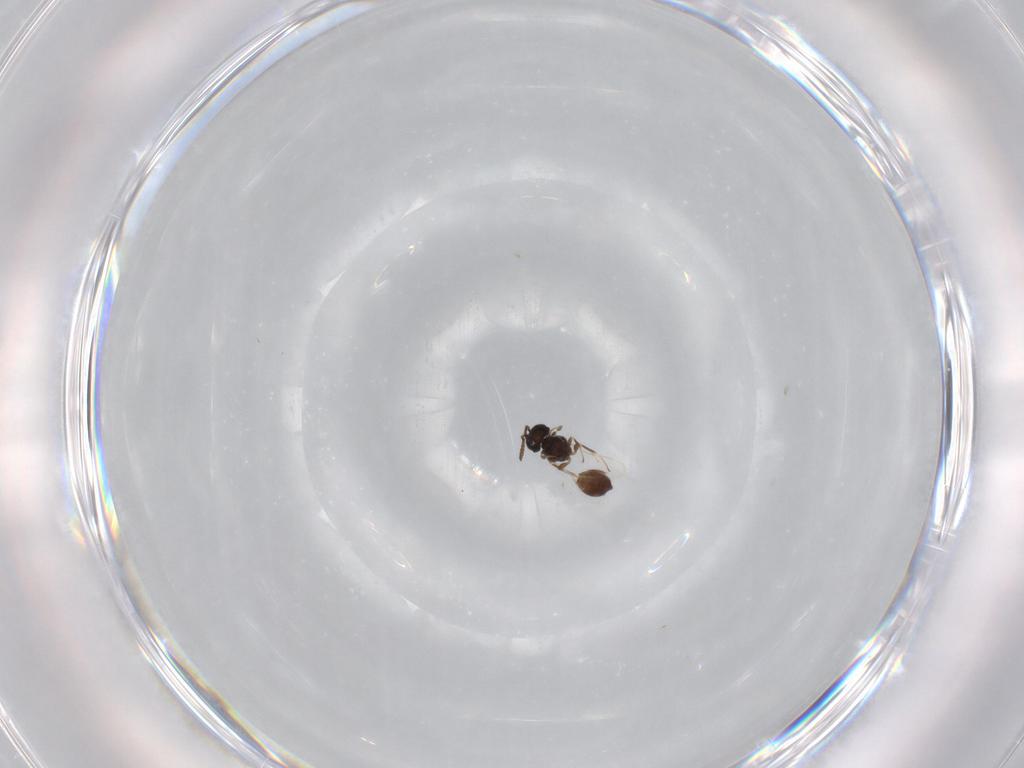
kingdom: Animalia
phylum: Arthropoda
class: Insecta
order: Hymenoptera
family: Scelionidae
